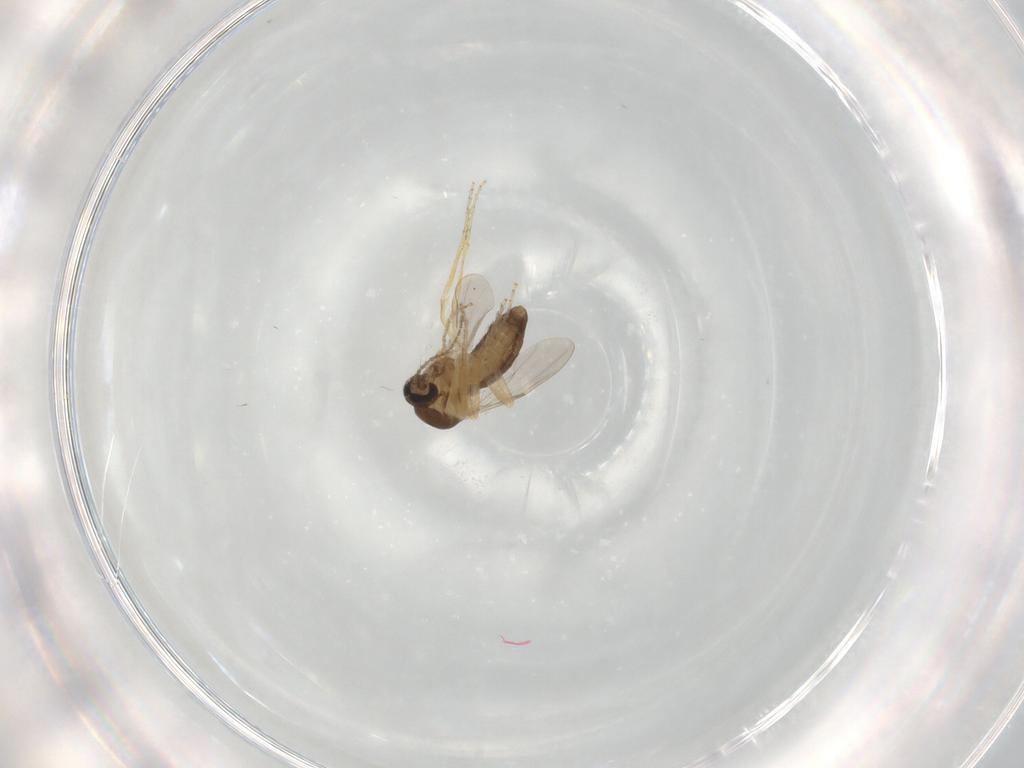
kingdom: Animalia
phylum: Arthropoda
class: Insecta
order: Diptera
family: Ceratopogonidae
